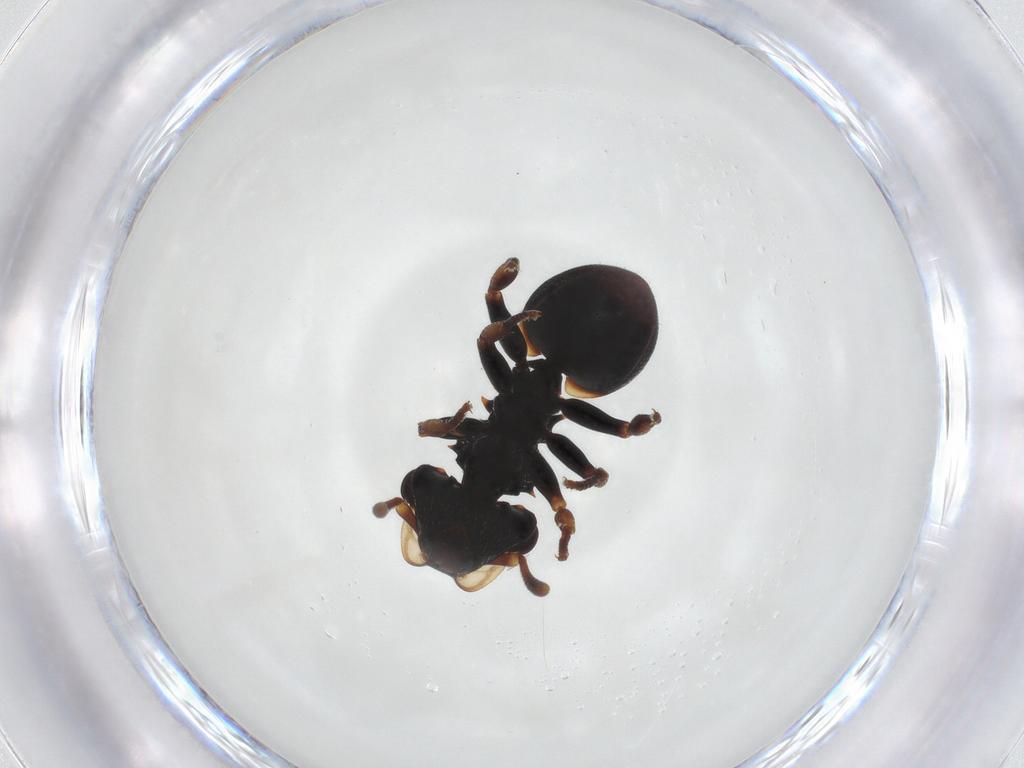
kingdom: Animalia
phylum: Arthropoda
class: Insecta
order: Hymenoptera
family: Formicidae
